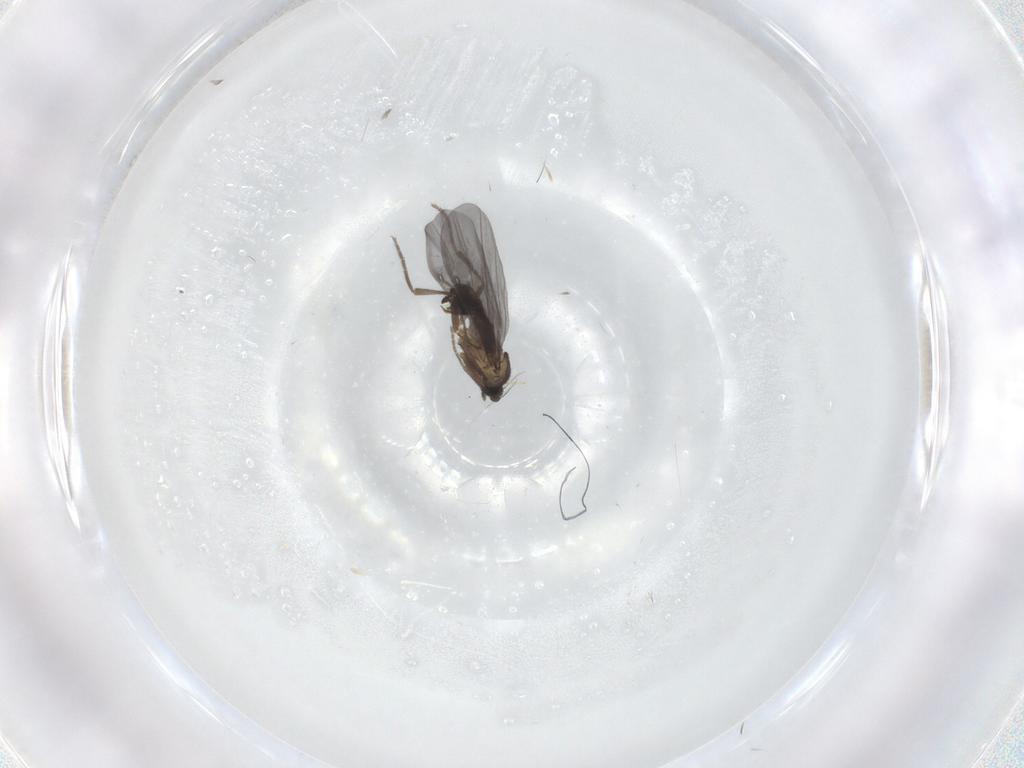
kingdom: Animalia
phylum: Arthropoda
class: Insecta
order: Diptera
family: Phoridae
